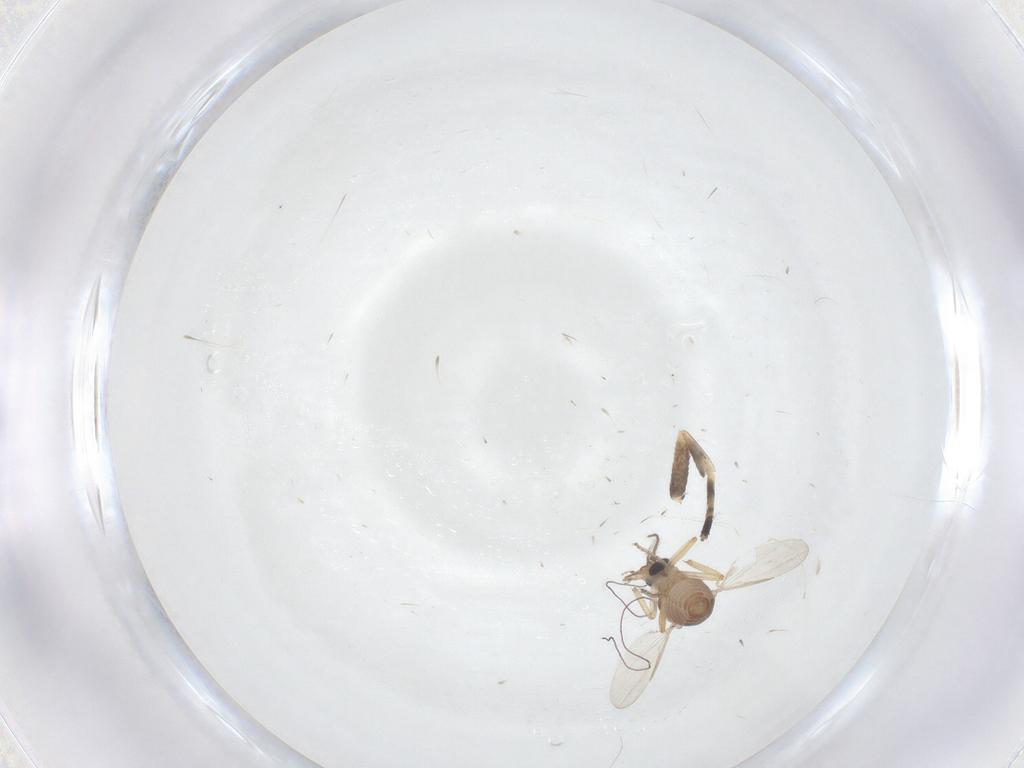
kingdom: Animalia
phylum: Arthropoda
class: Insecta
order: Diptera
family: Ceratopogonidae
